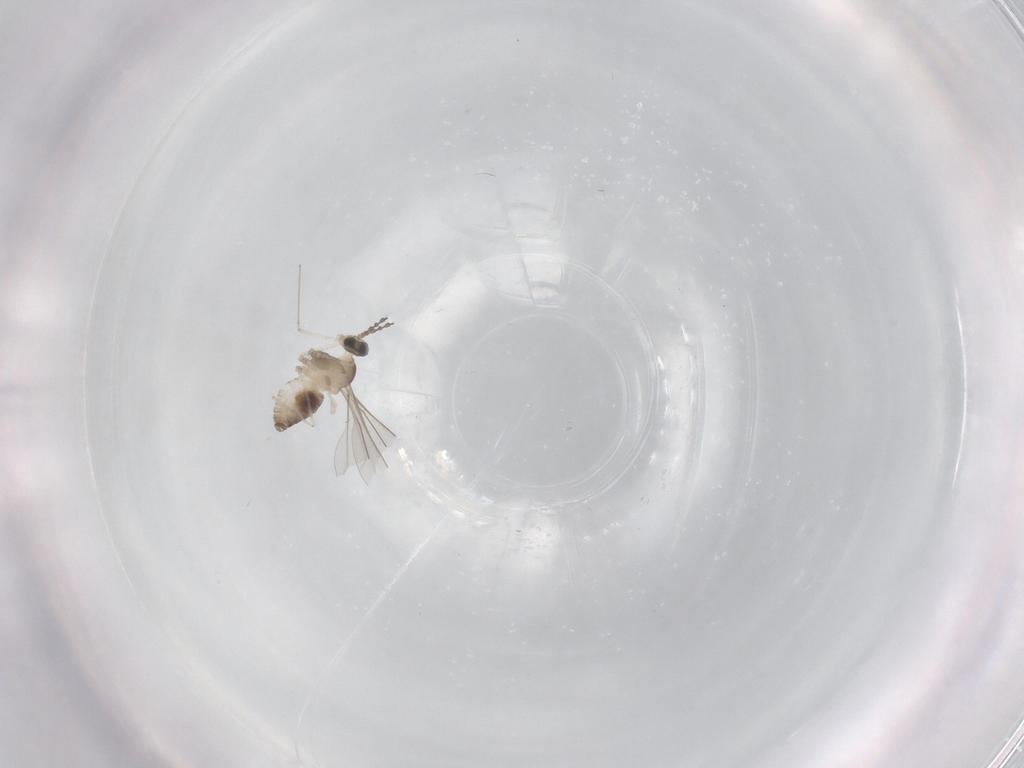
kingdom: Animalia
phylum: Arthropoda
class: Insecta
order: Diptera
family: Cecidomyiidae
